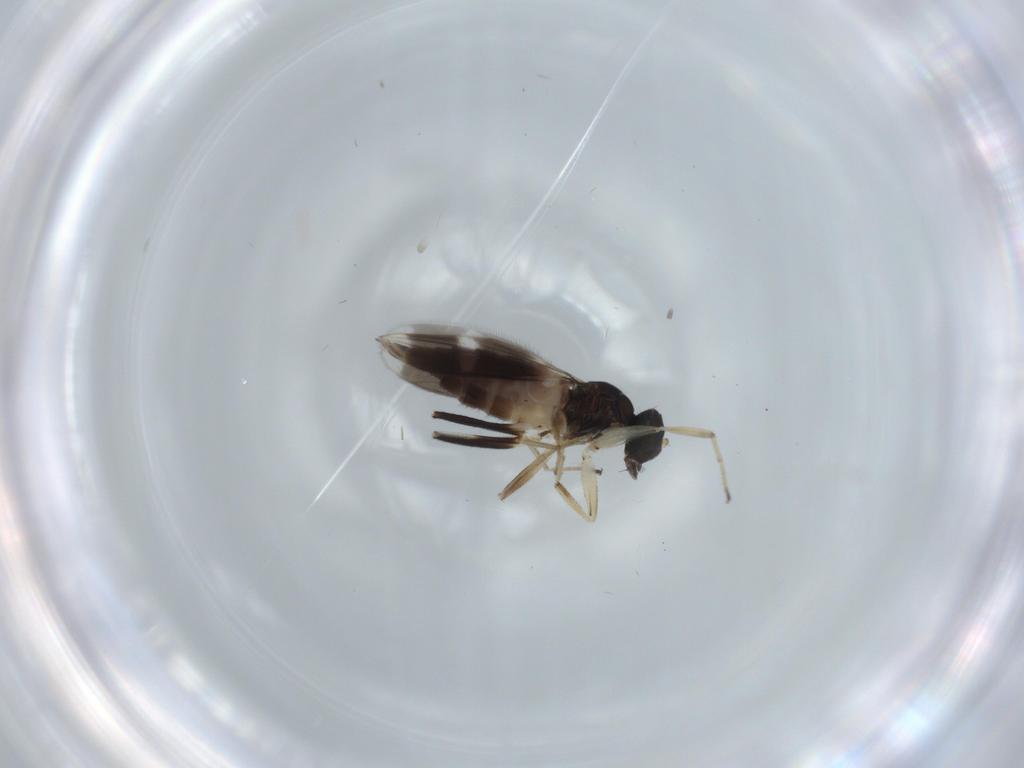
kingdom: Animalia
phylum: Arthropoda
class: Insecta
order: Diptera
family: Hybotidae
